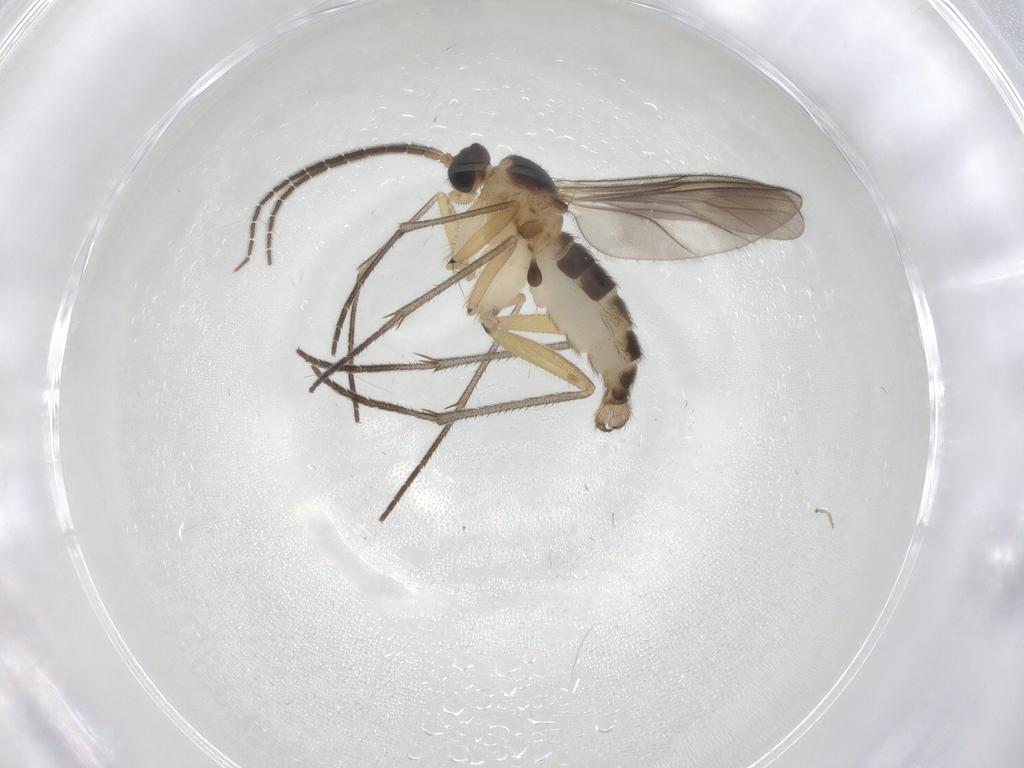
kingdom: Animalia
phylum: Arthropoda
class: Insecta
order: Diptera
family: Sciaridae
